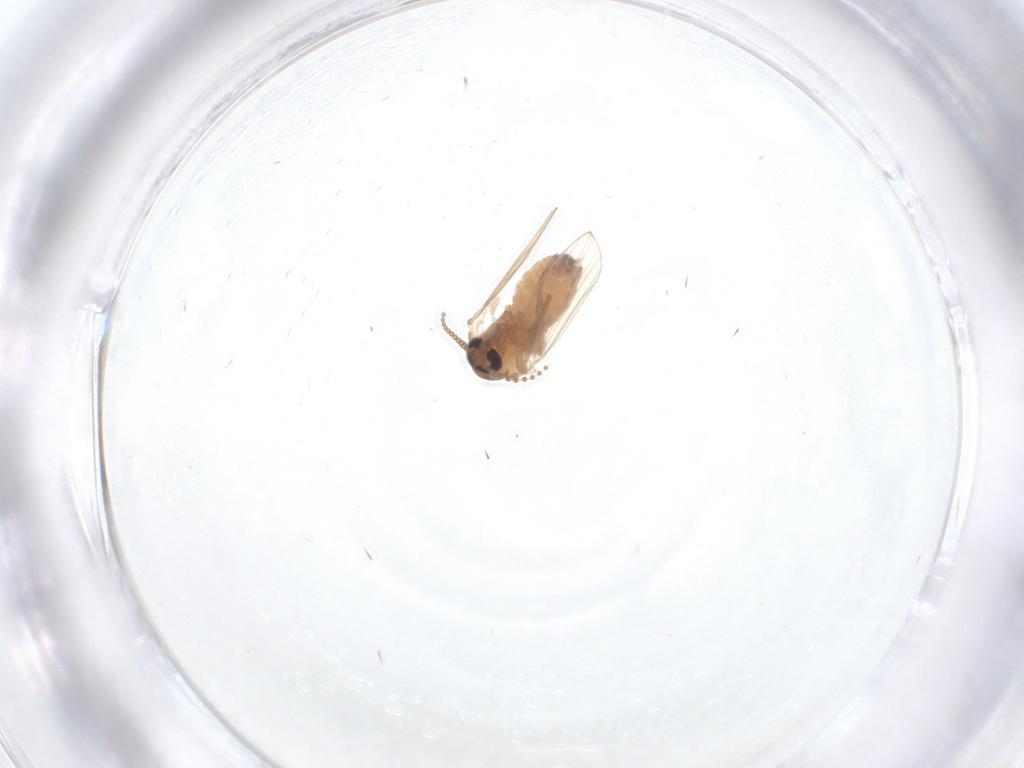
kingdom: Animalia
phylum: Arthropoda
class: Insecta
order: Diptera
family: Psychodidae
